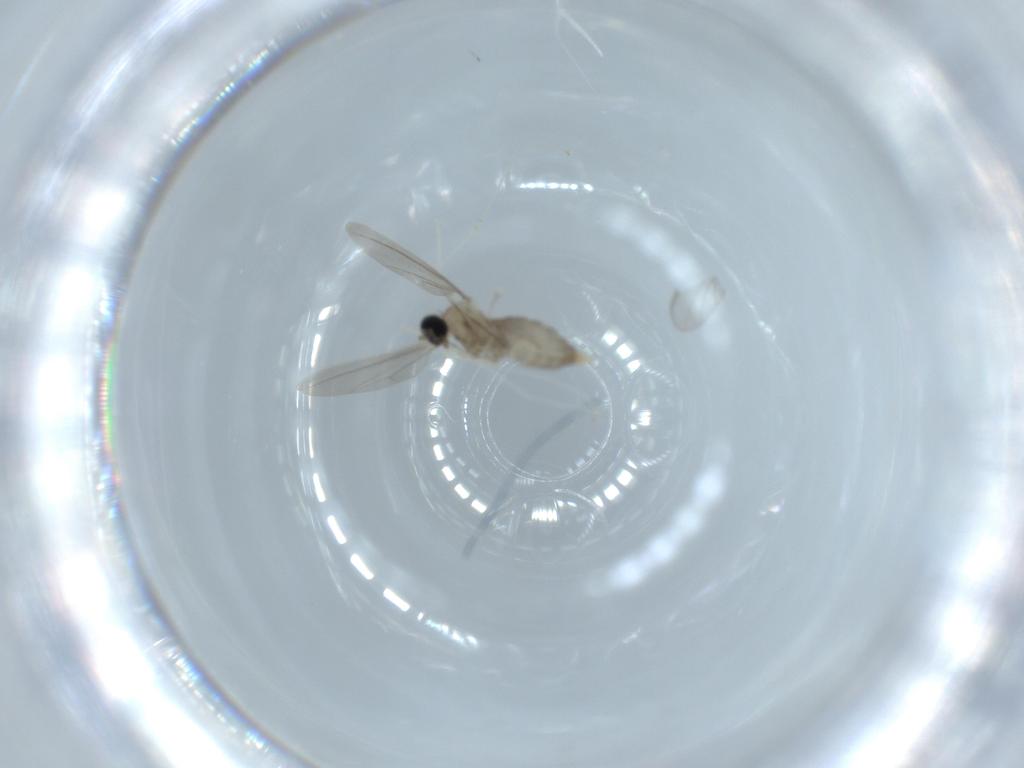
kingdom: Animalia
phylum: Arthropoda
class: Insecta
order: Diptera
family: Cecidomyiidae
